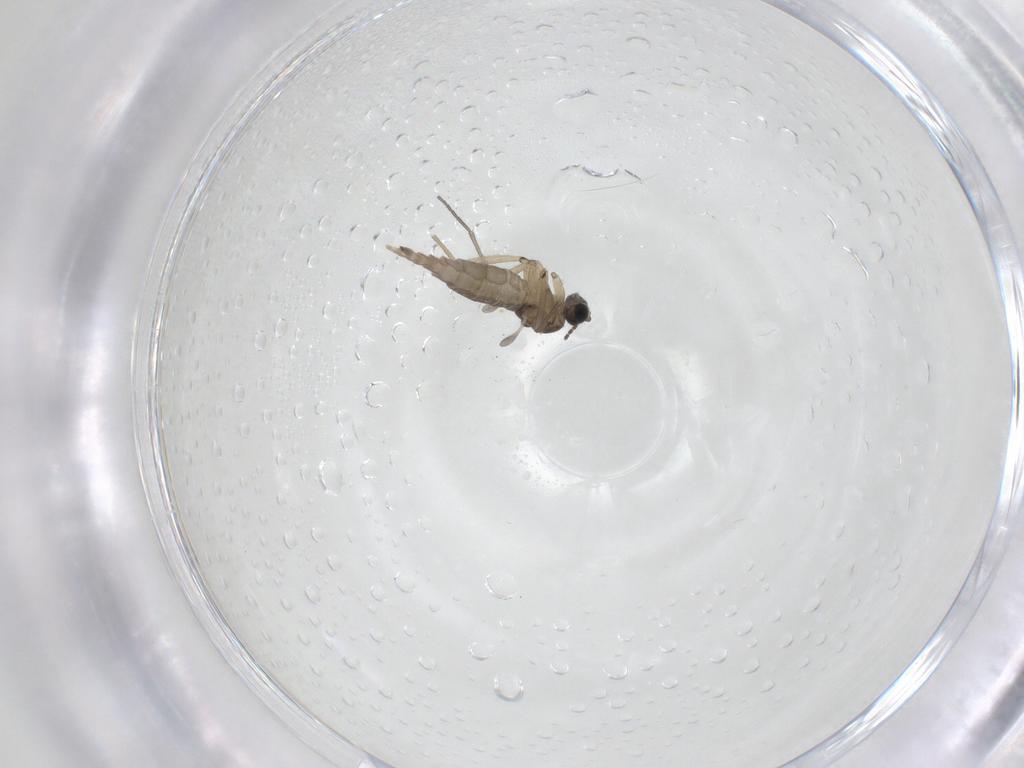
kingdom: Animalia
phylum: Arthropoda
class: Insecta
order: Diptera
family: Sciaridae
